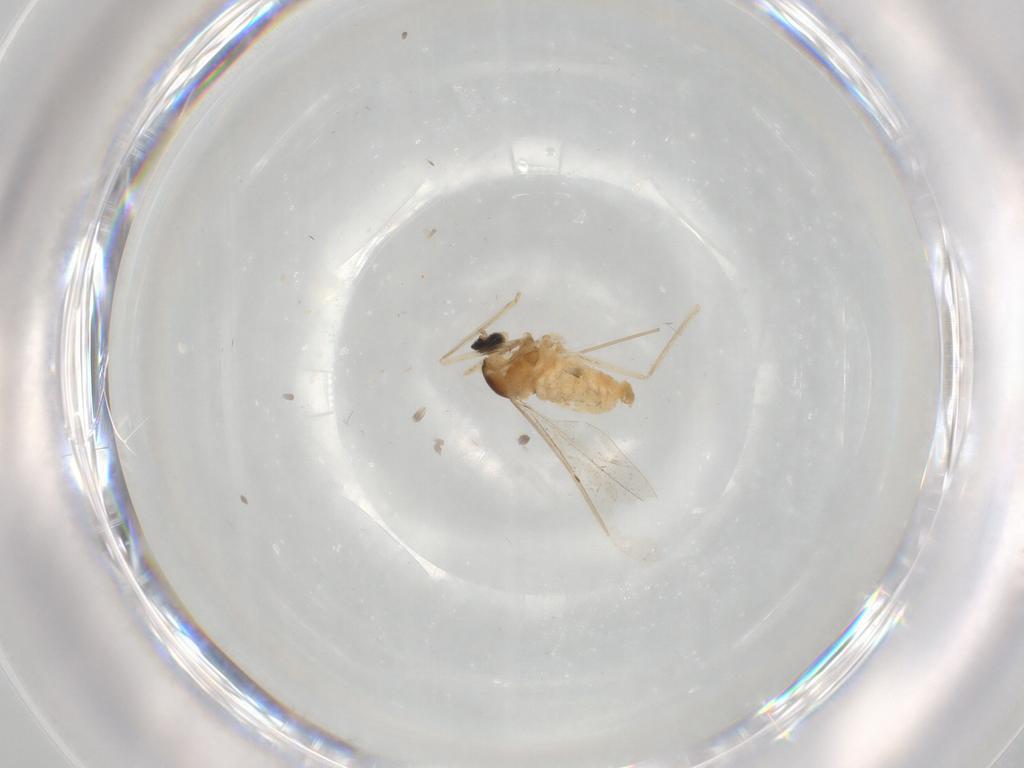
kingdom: Animalia
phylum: Arthropoda
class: Insecta
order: Diptera
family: Cecidomyiidae
